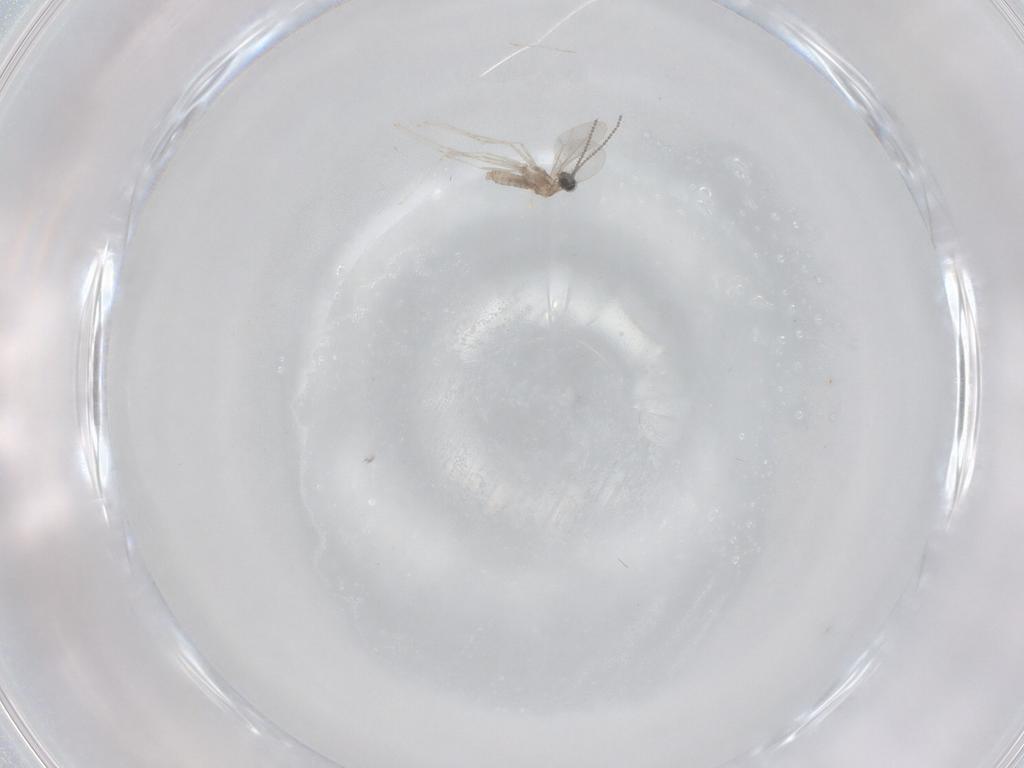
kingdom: Animalia
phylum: Arthropoda
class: Insecta
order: Diptera
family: Cecidomyiidae
